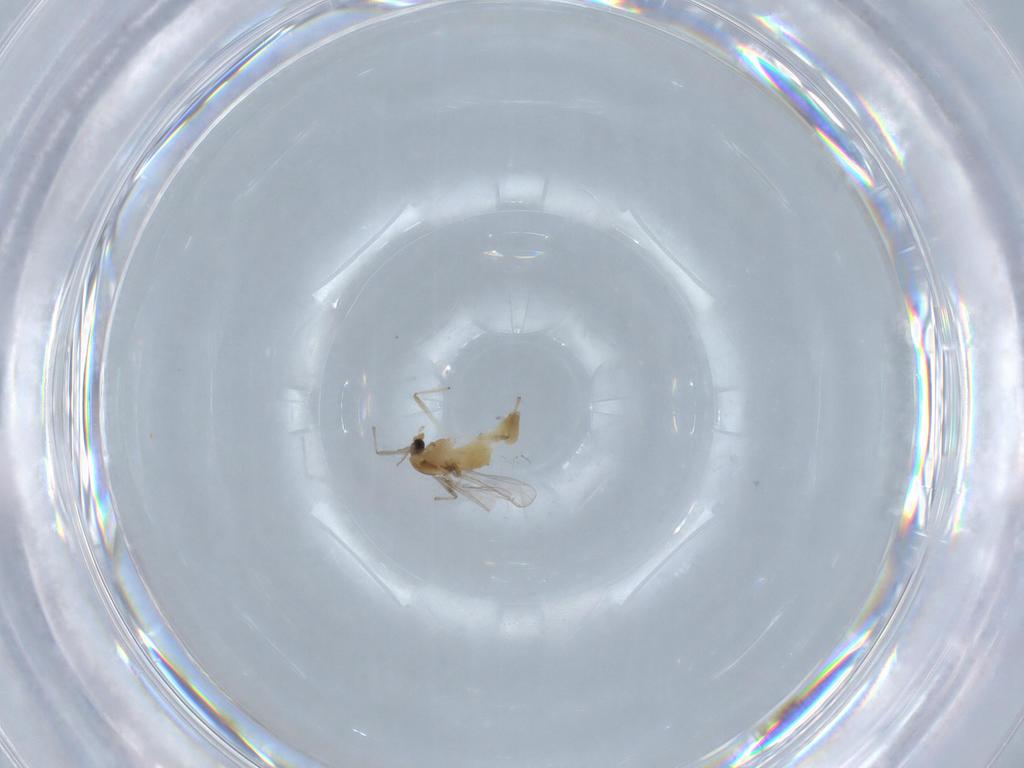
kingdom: Animalia
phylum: Arthropoda
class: Insecta
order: Diptera
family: Chironomidae
